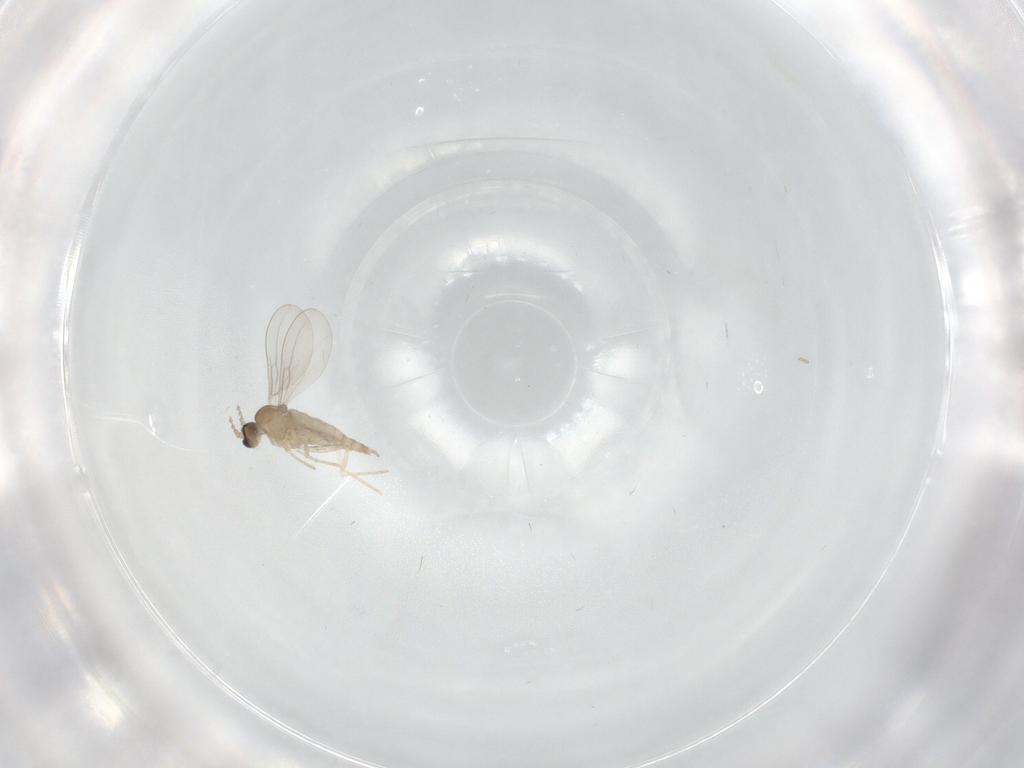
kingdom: Animalia
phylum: Arthropoda
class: Insecta
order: Diptera
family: Cecidomyiidae
